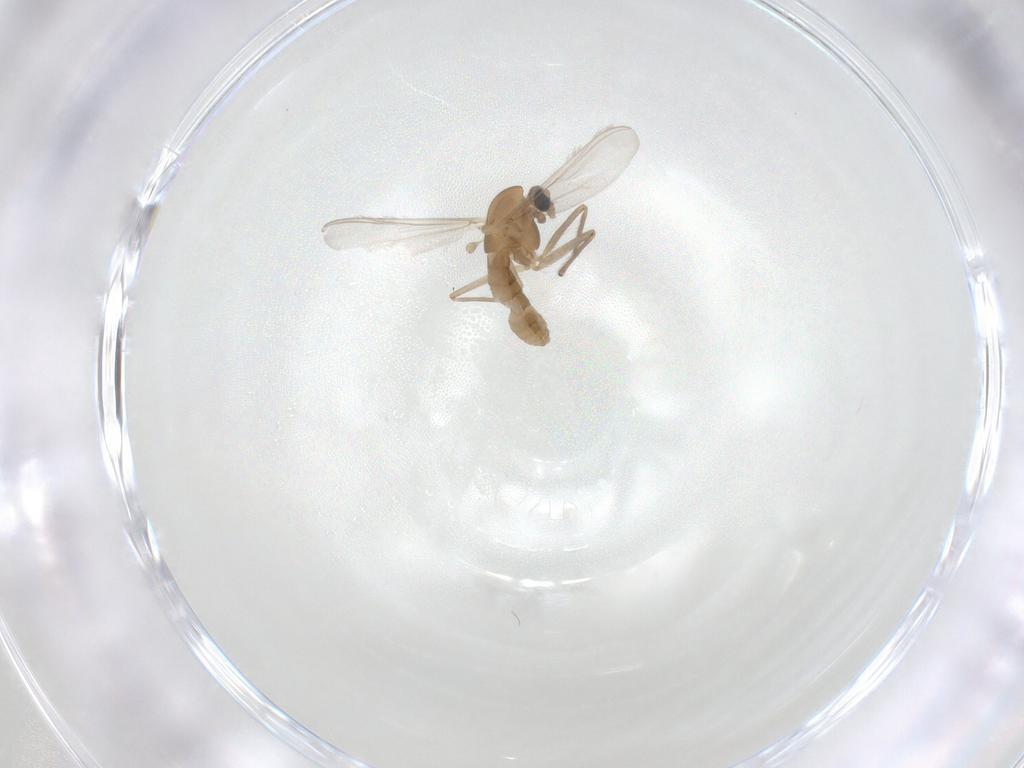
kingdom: Animalia
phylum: Arthropoda
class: Insecta
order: Diptera
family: Chironomidae
